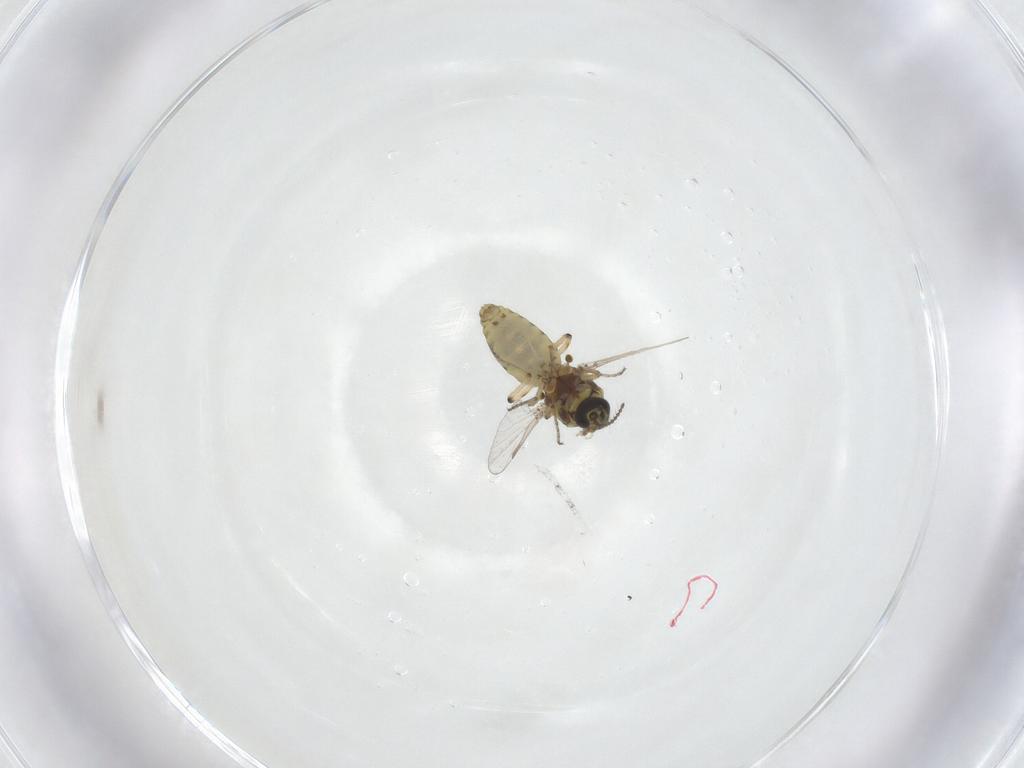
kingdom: Animalia
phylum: Arthropoda
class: Insecta
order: Diptera
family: Ceratopogonidae
